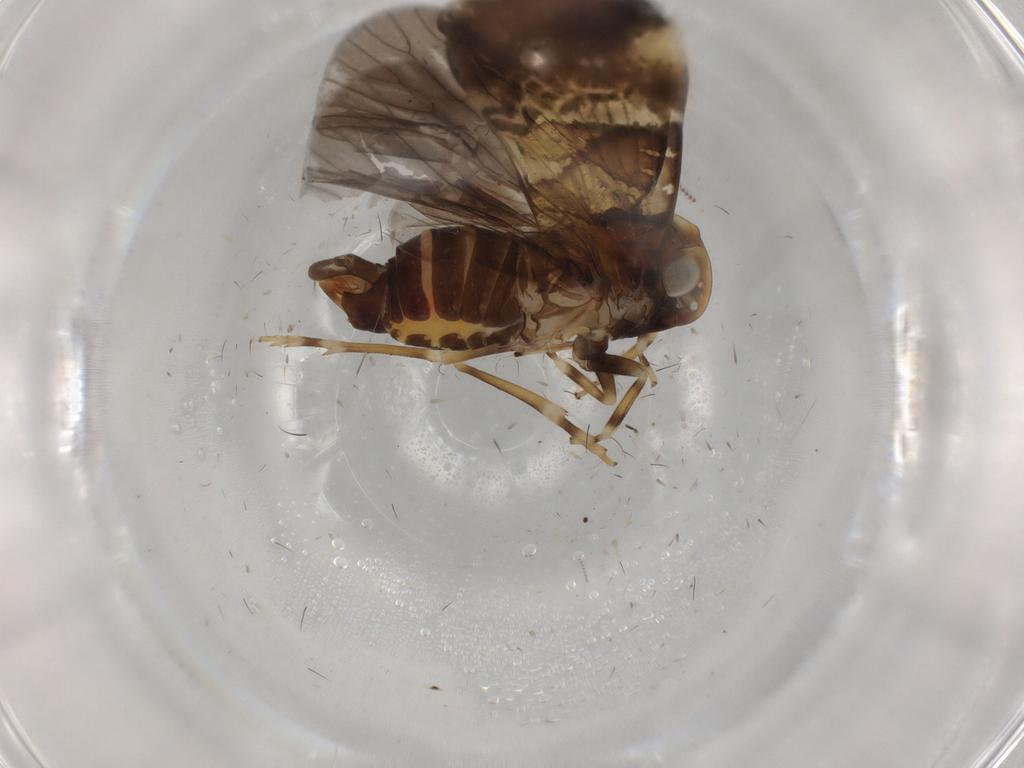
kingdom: Animalia
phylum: Arthropoda
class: Insecta
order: Hemiptera
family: Cixiidae
